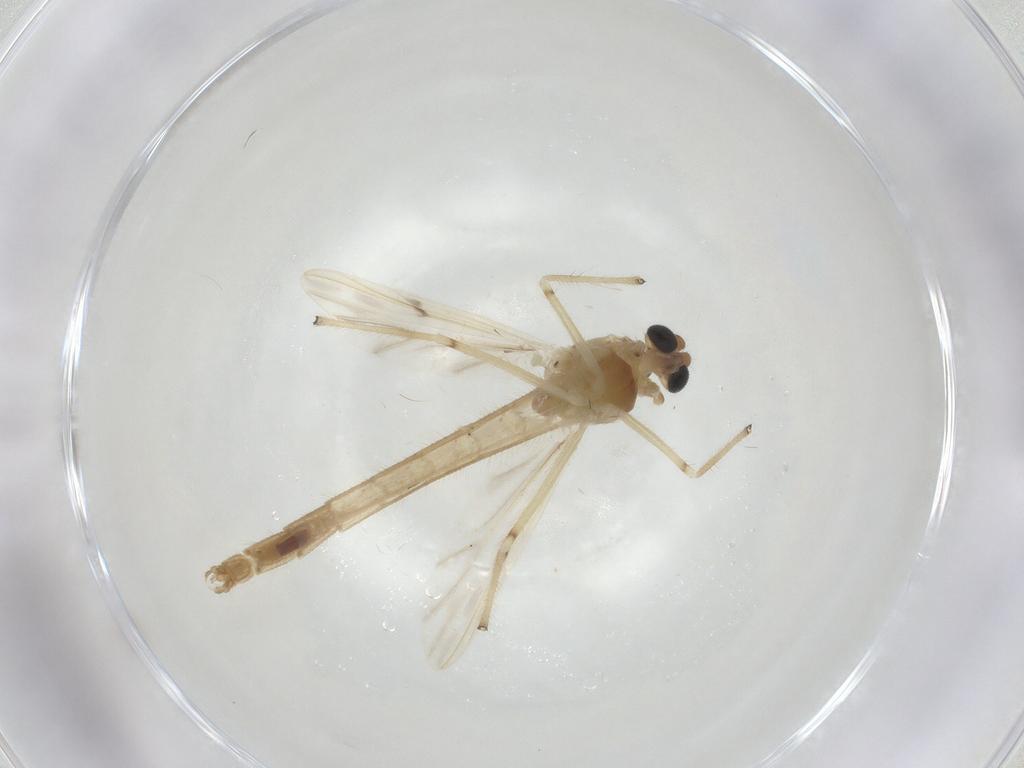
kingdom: Animalia
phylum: Arthropoda
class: Insecta
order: Diptera
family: Chironomidae
